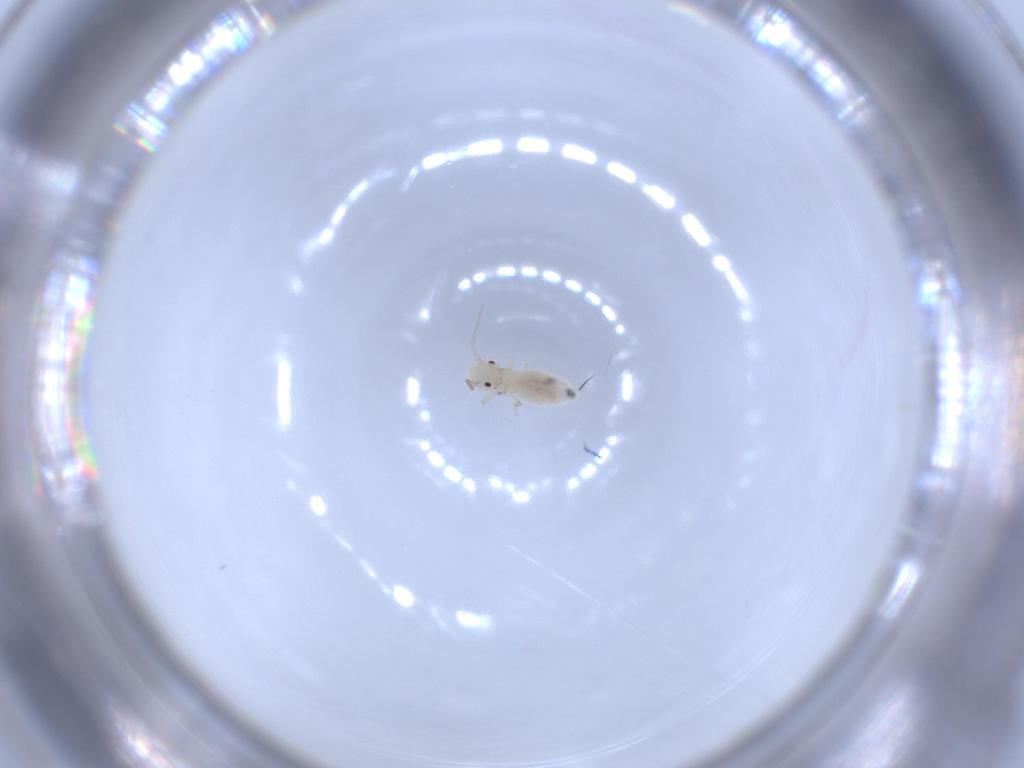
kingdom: Animalia
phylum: Arthropoda
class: Insecta
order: Psocodea
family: Caeciliusidae
